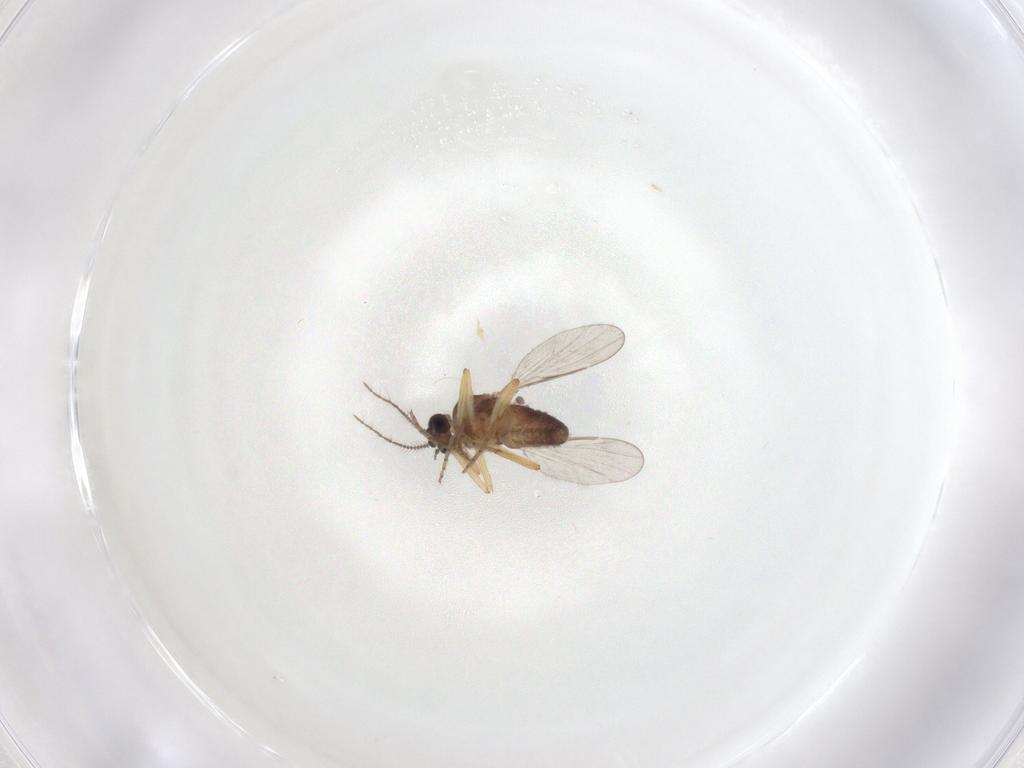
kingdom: Animalia
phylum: Arthropoda
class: Insecta
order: Diptera
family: Ceratopogonidae
